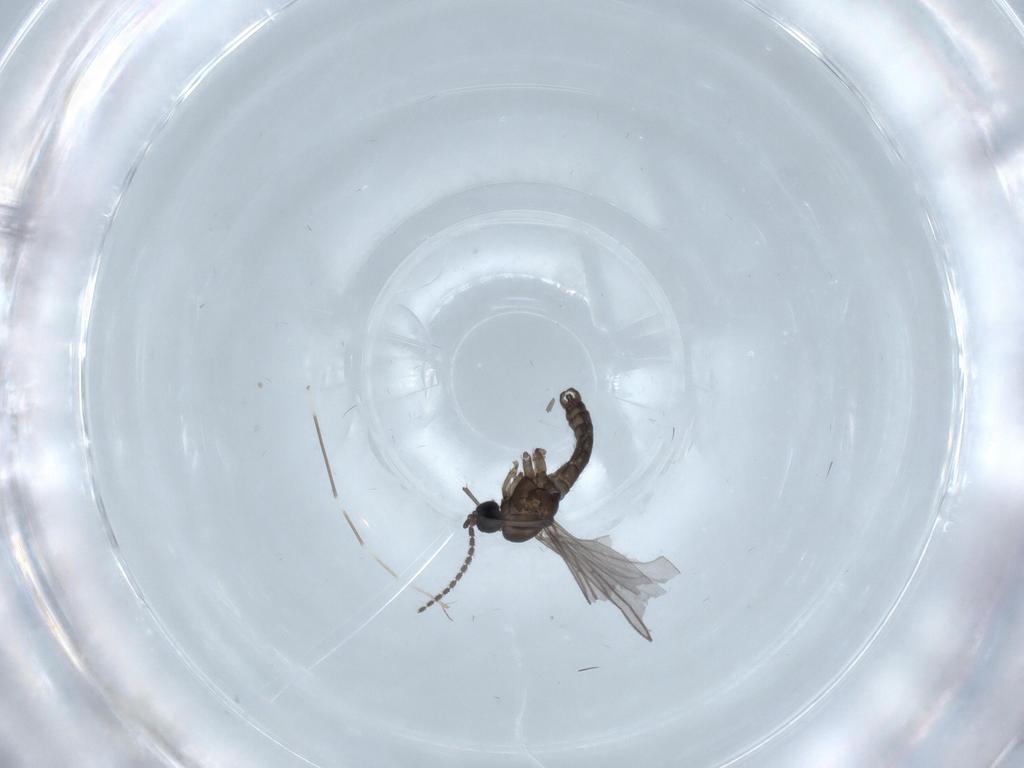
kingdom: Animalia
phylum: Arthropoda
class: Insecta
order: Diptera
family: Chironomidae
